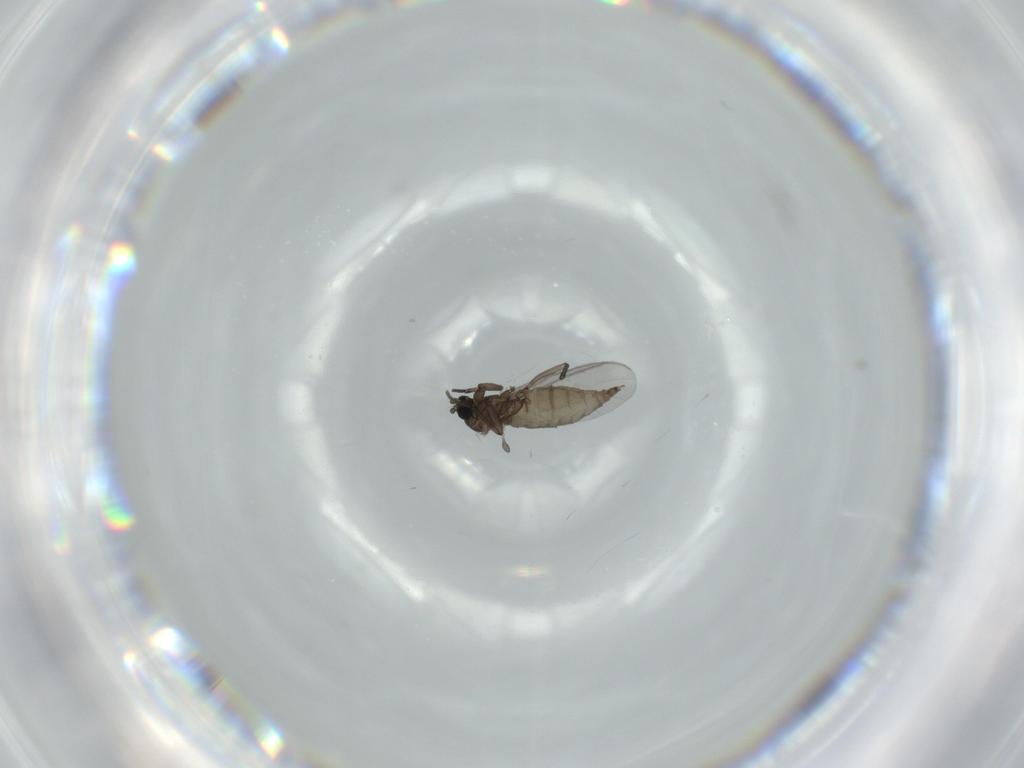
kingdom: Animalia
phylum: Arthropoda
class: Insecta
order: Diptera
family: Sciaridae
